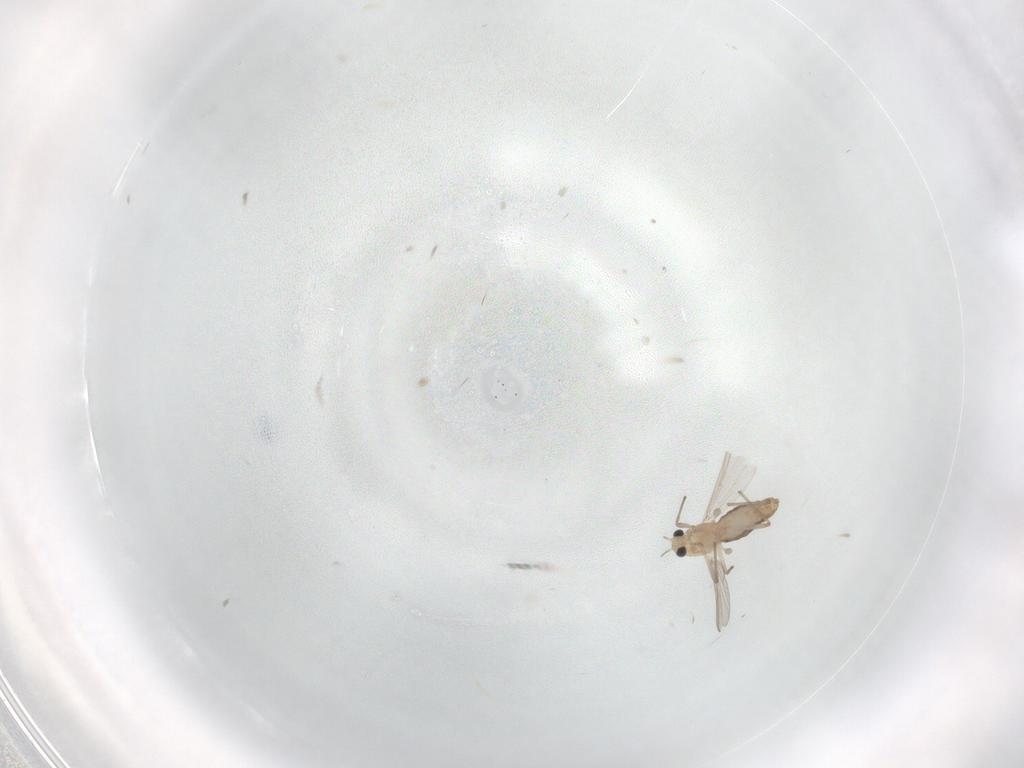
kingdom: Animalia
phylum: Arthropoda
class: Insecta
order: Diptera
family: Chironomidae
